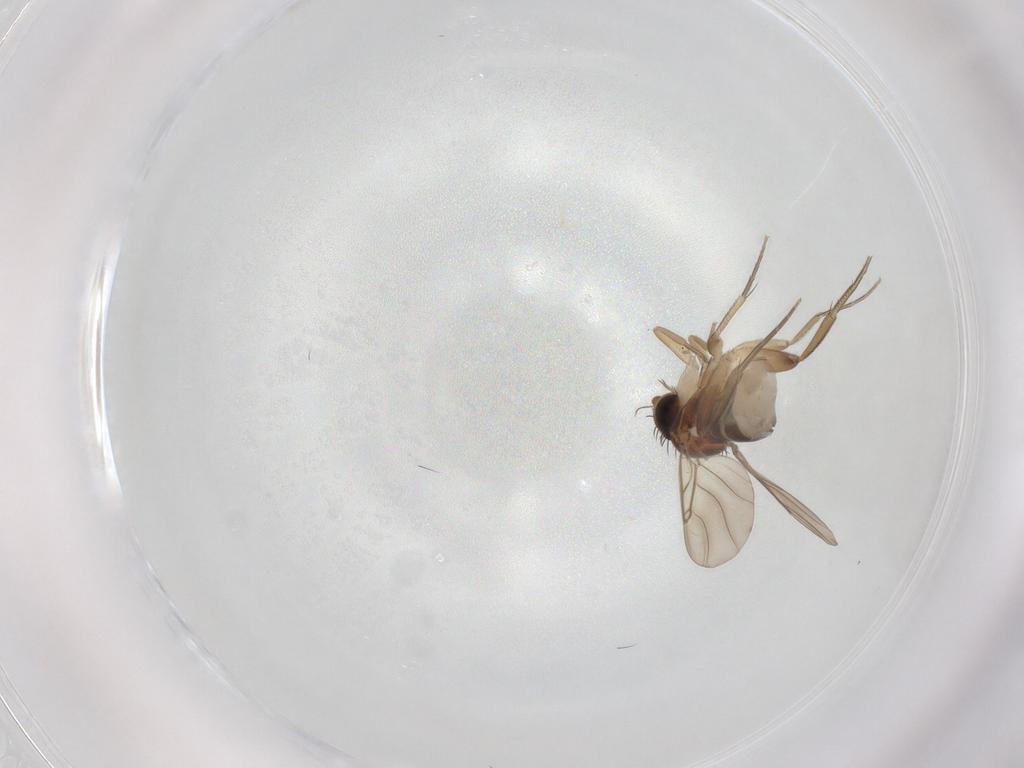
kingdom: Animalia
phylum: Arthropoda
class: Insecta
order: Diptera
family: Phoridae
